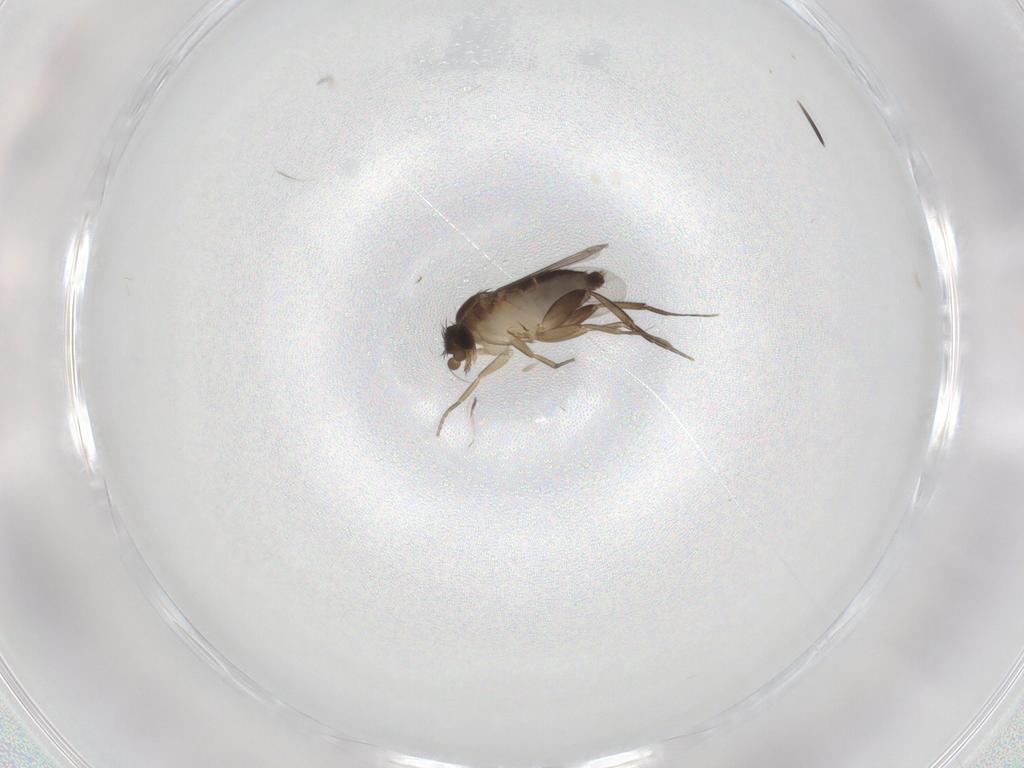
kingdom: Animalia
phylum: Arthropoda
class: Insecta
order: Diptera
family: Phoridae
